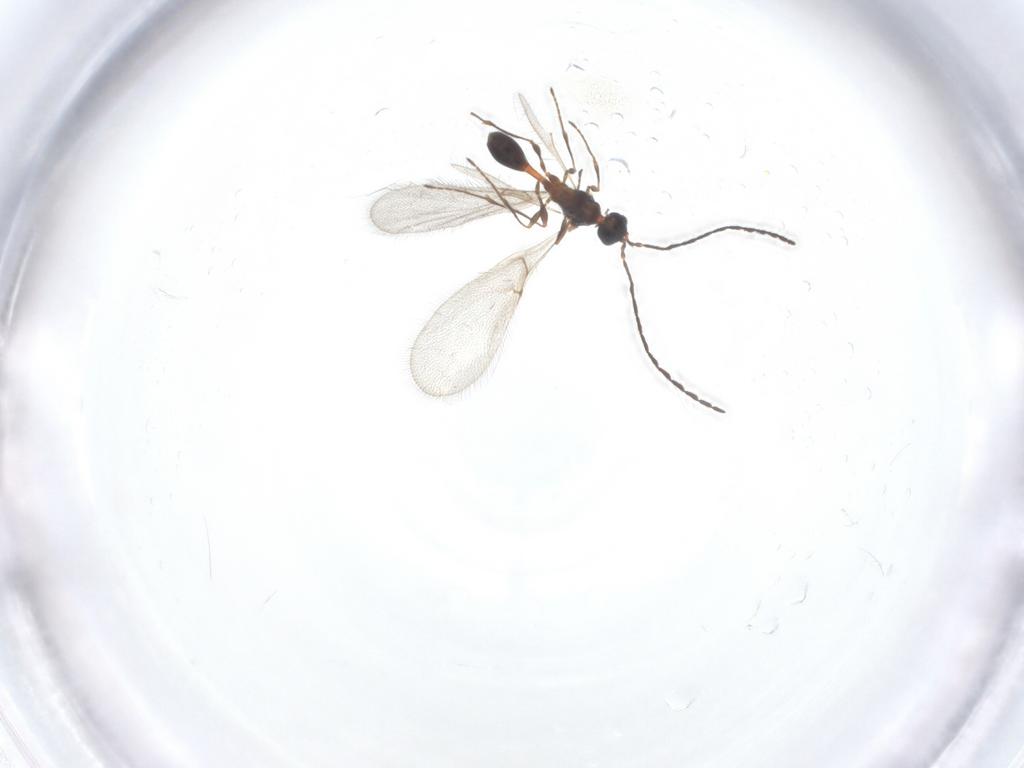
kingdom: Animalia
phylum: Arthropoda
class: Insecta
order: Hymenoptera
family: Diapriidae
